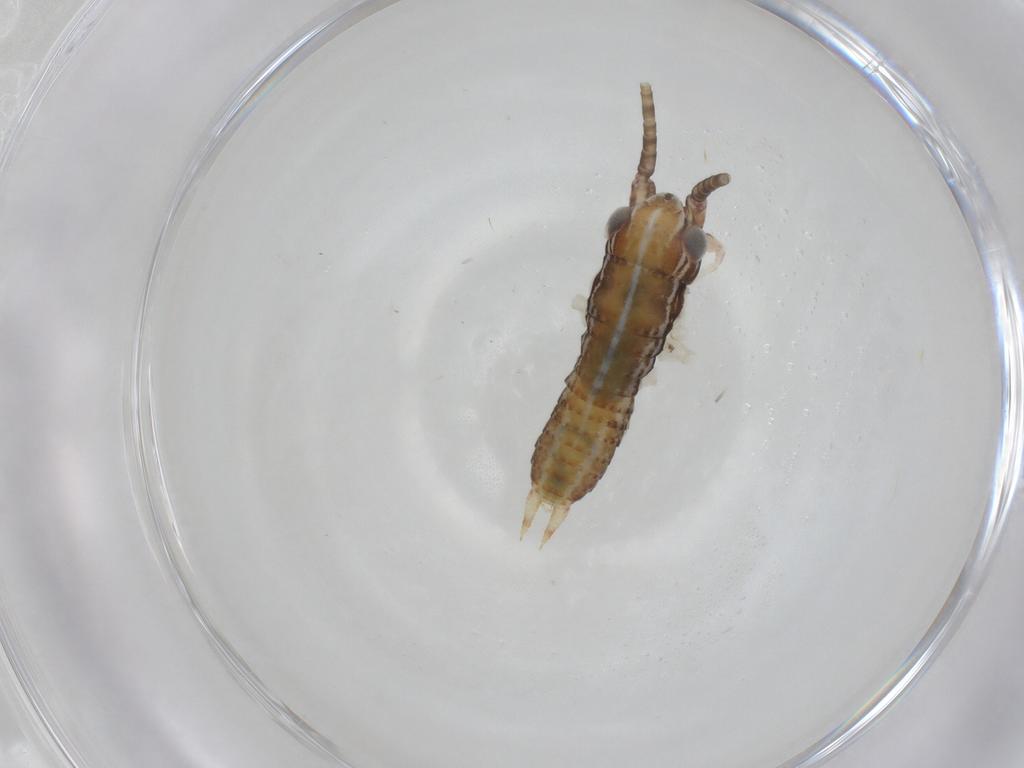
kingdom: Animalia
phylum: Arthropoda
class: Insecta
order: Orthoptera
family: Gryllidae
